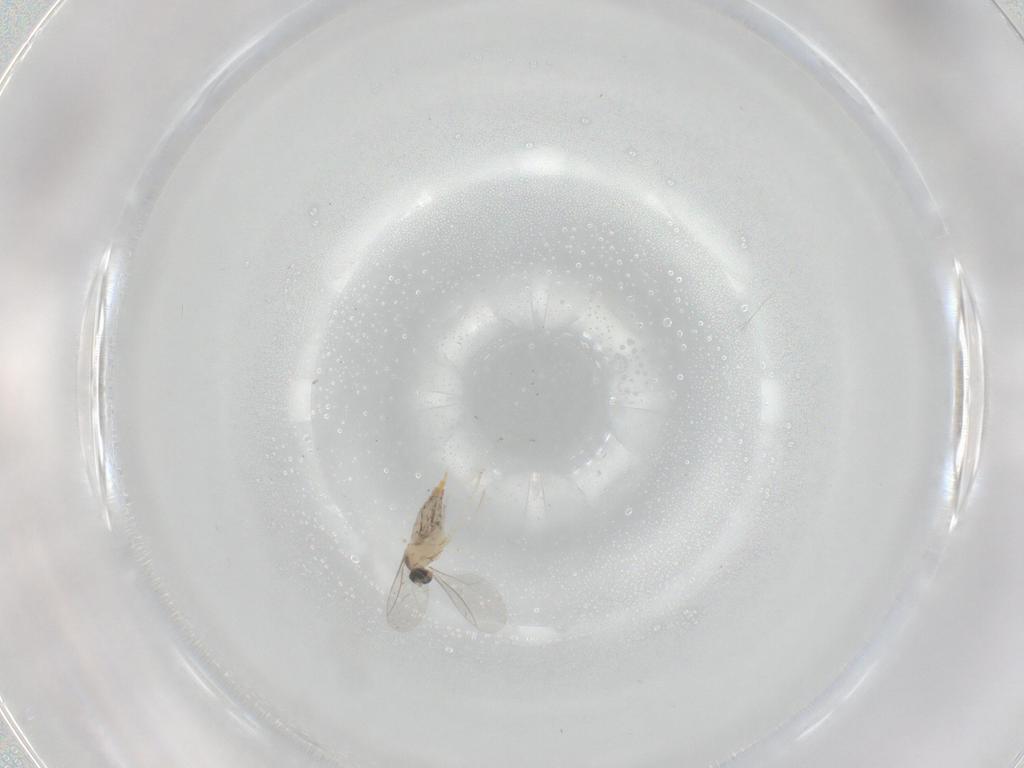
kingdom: Animalia
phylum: Arthropoda
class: Insecta
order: Diptera
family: Cecidomyiidae
